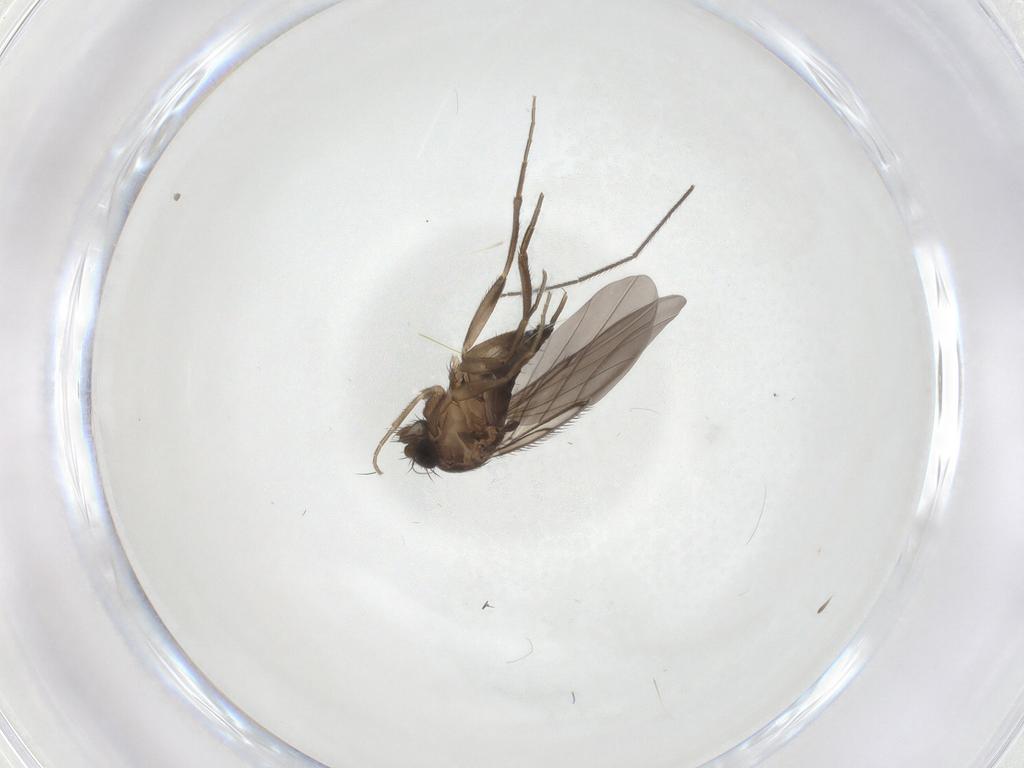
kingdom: Animalia
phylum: Arthropoda
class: Insecta
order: Diptera
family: Phoridae
